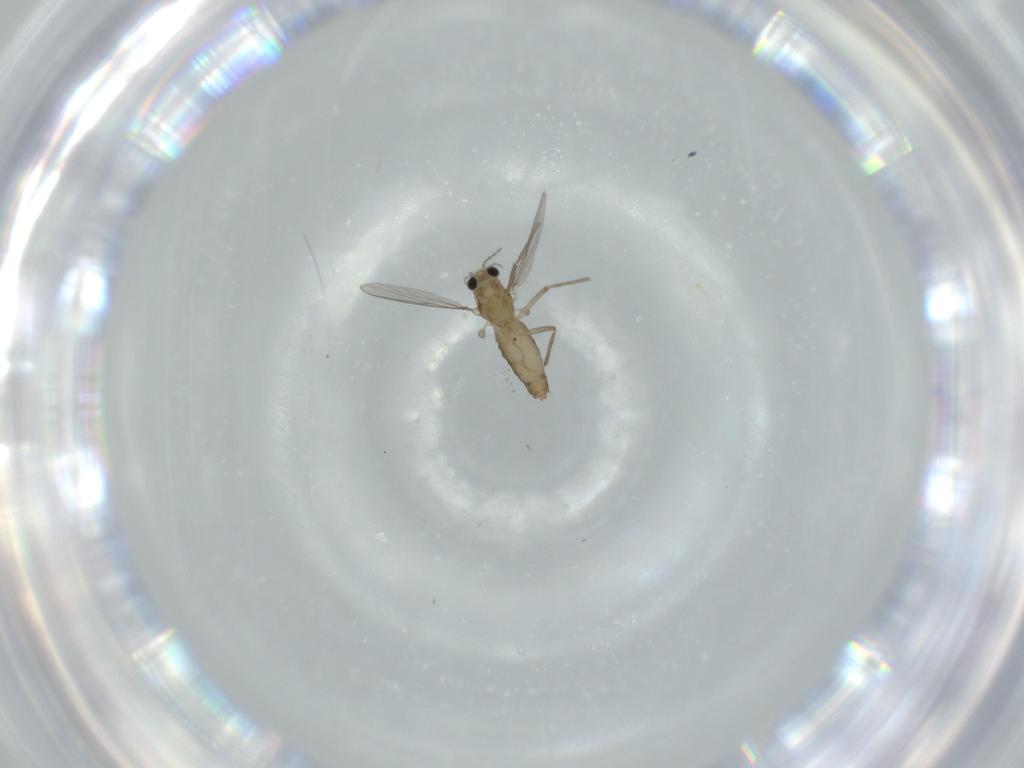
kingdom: Animalia
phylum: Arthropoda
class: Insecta
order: Diptera
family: Chironomidae
